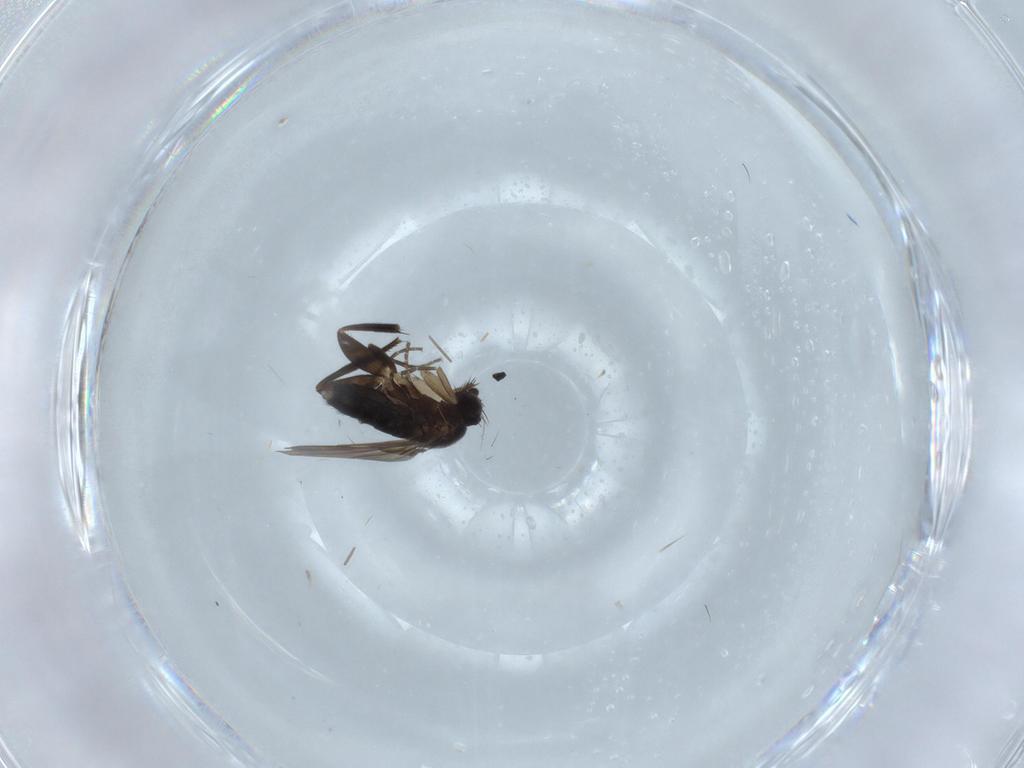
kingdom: Animalia
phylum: Arthropoda
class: Insecta
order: Diptera
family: Phoridae
